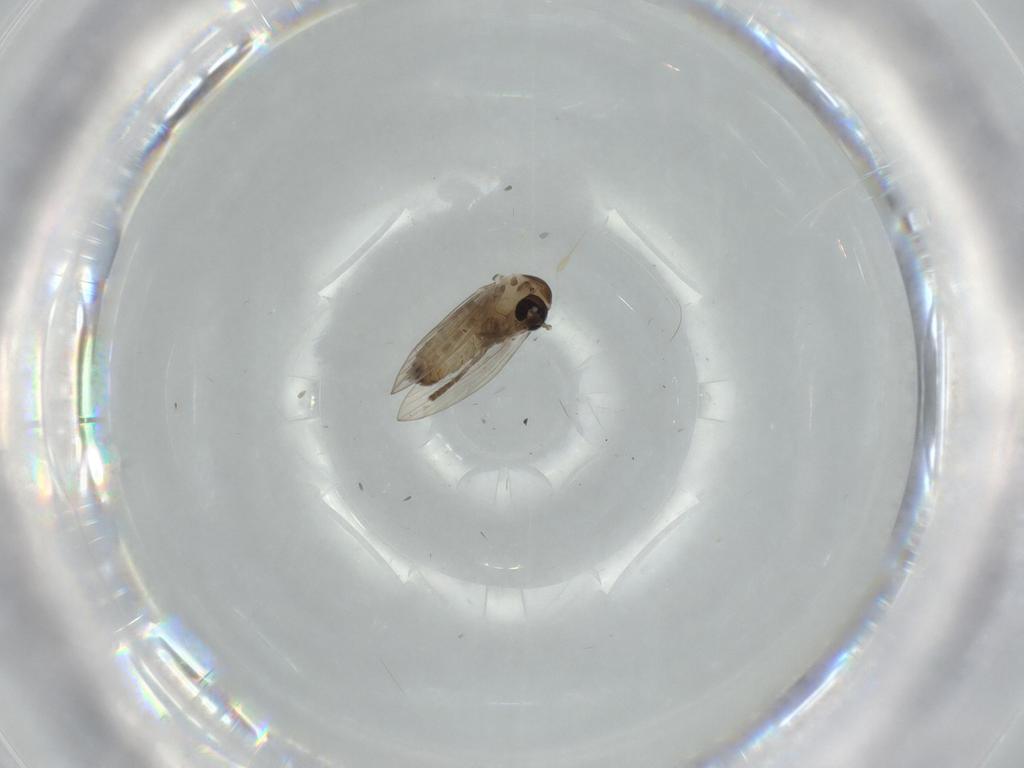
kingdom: Animalia
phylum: Arthropoda
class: Insecta
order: Diptera
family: Psychodidae
